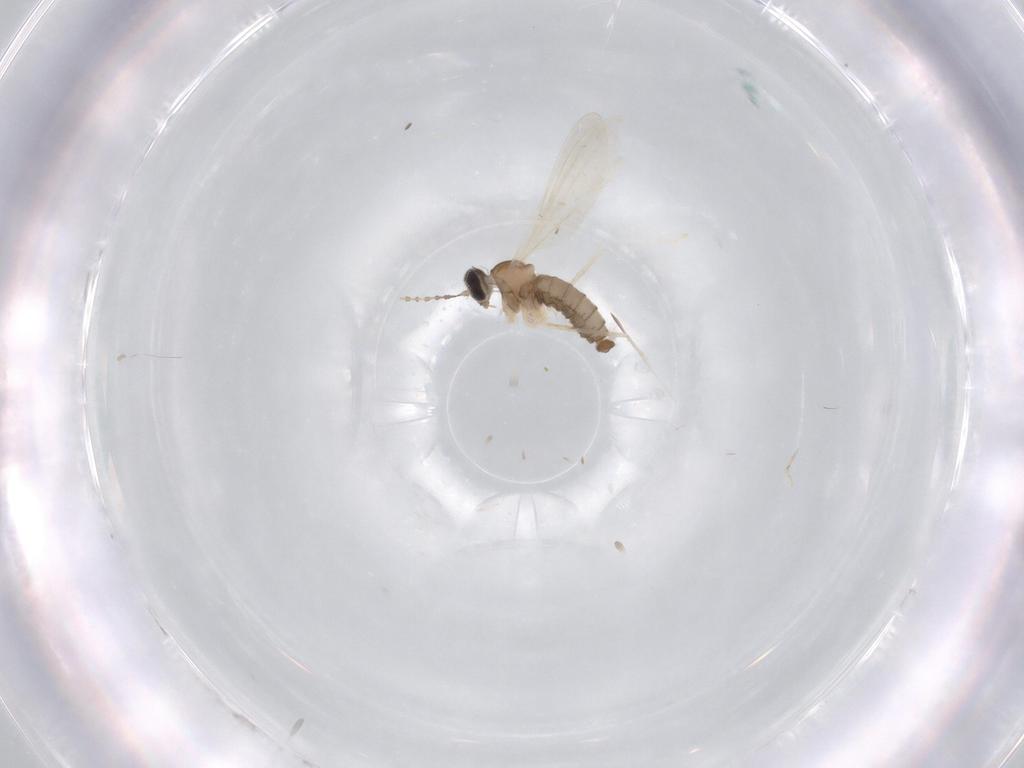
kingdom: Animalia
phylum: Arthropoda
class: Insecta
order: Diptera
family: Cecidomyiidae
